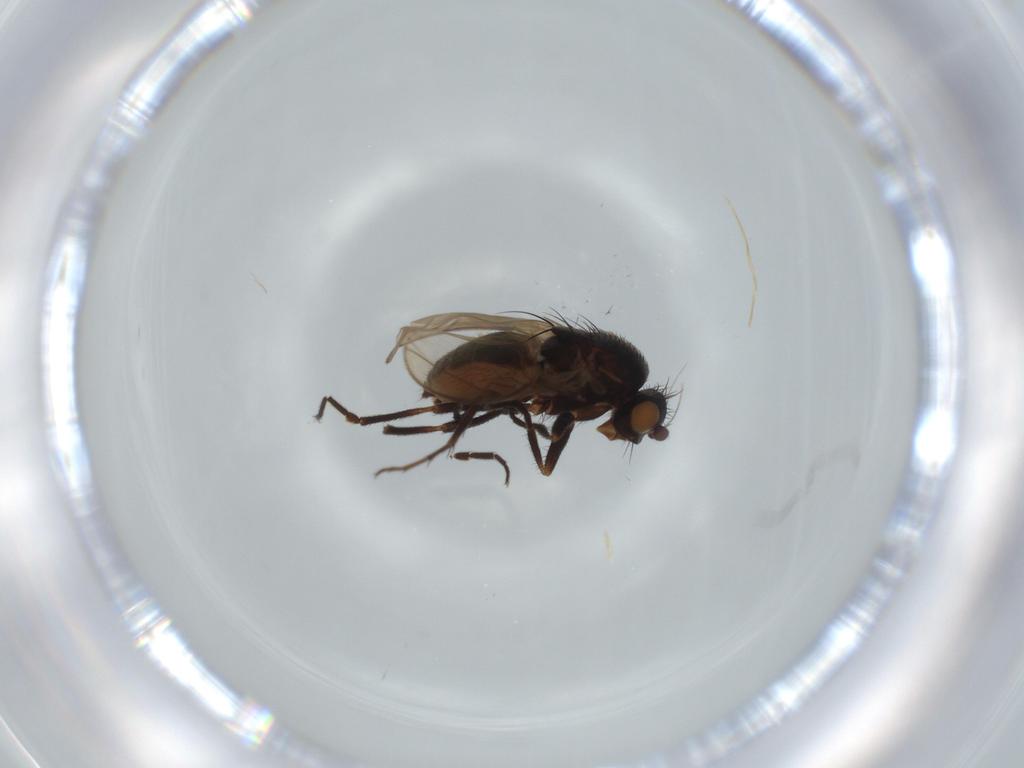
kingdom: Animalia
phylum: Arthropoda
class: Insecta
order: Diptera
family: Sphaeroceridae
